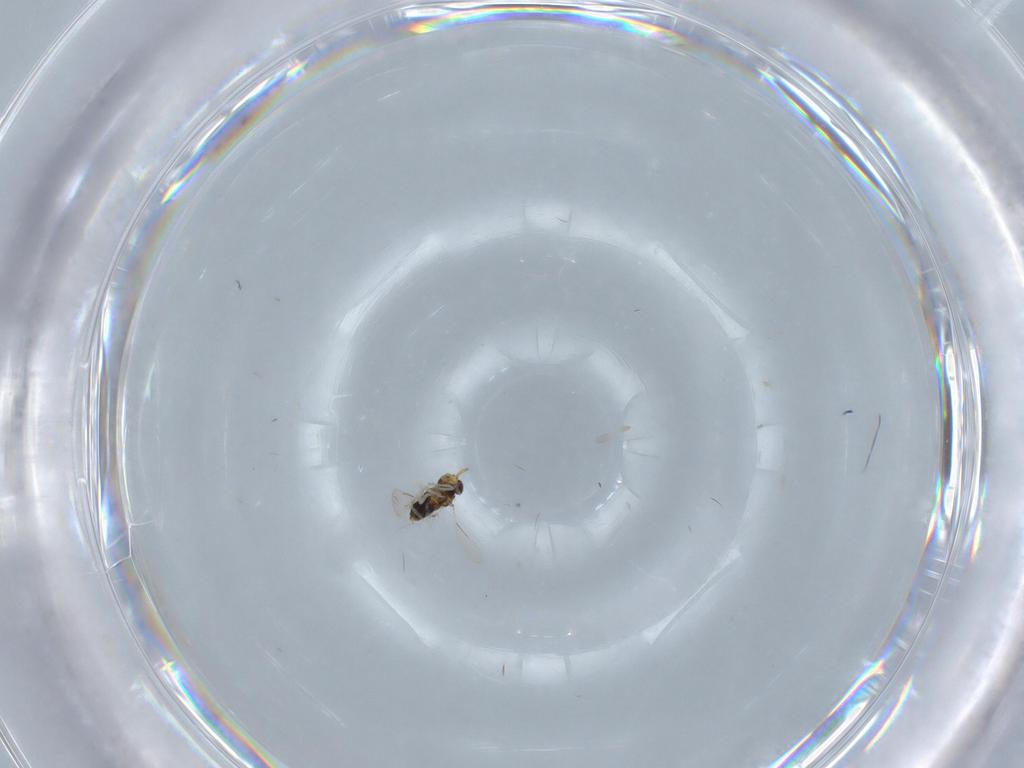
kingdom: Animalia
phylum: Arthropoda
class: Insecta
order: Hymenoptera
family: Aphelinidae
